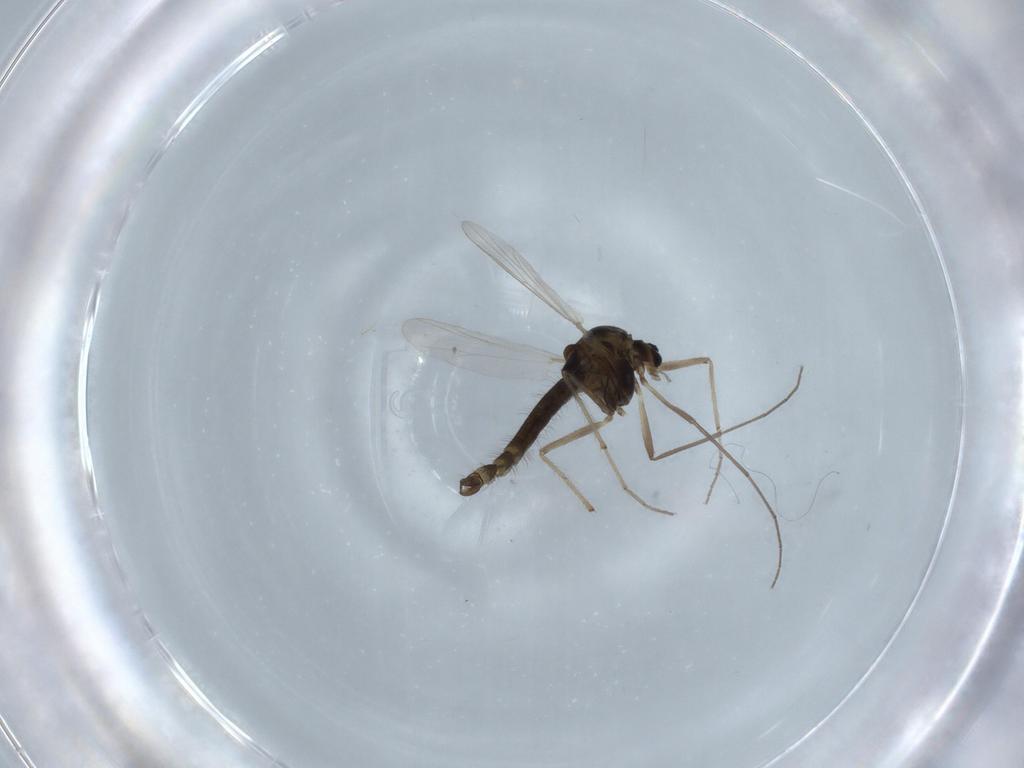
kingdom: Animalia
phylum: Arthropoda
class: Insecta
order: Diptera
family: Chironomidae
